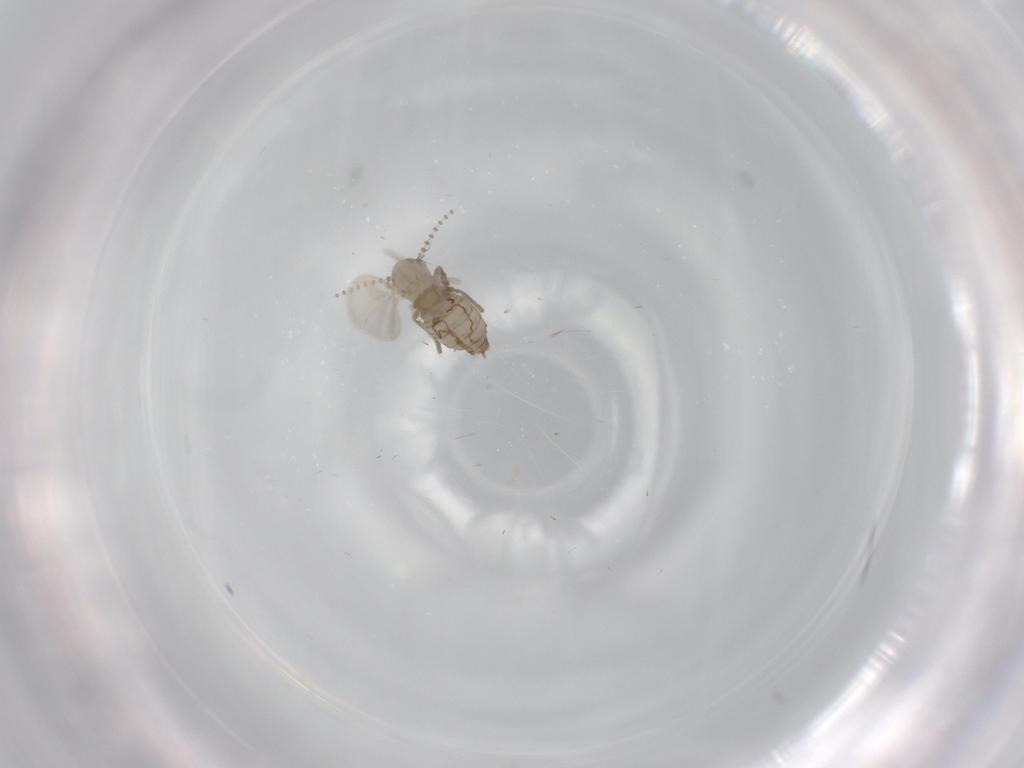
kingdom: Animalia
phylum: Arthropoda
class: Insecta
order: Diptera
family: Psychodidae
